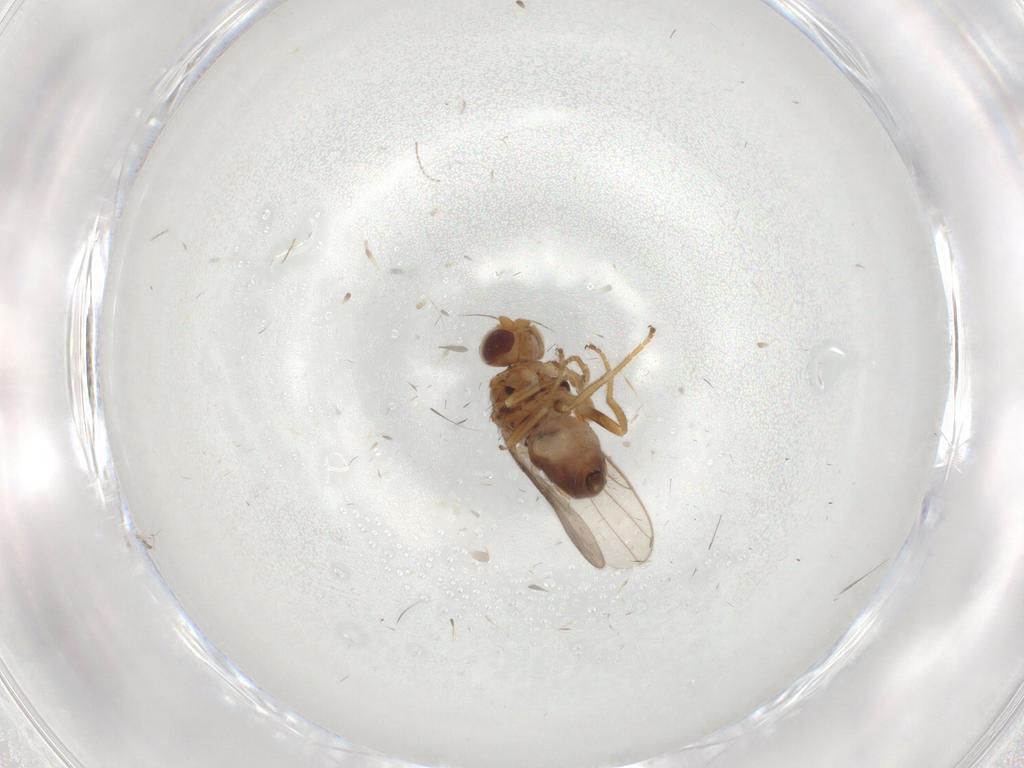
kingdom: Animalia
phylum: Arthropoda
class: Insecta
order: Diptera
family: Chloropidae
